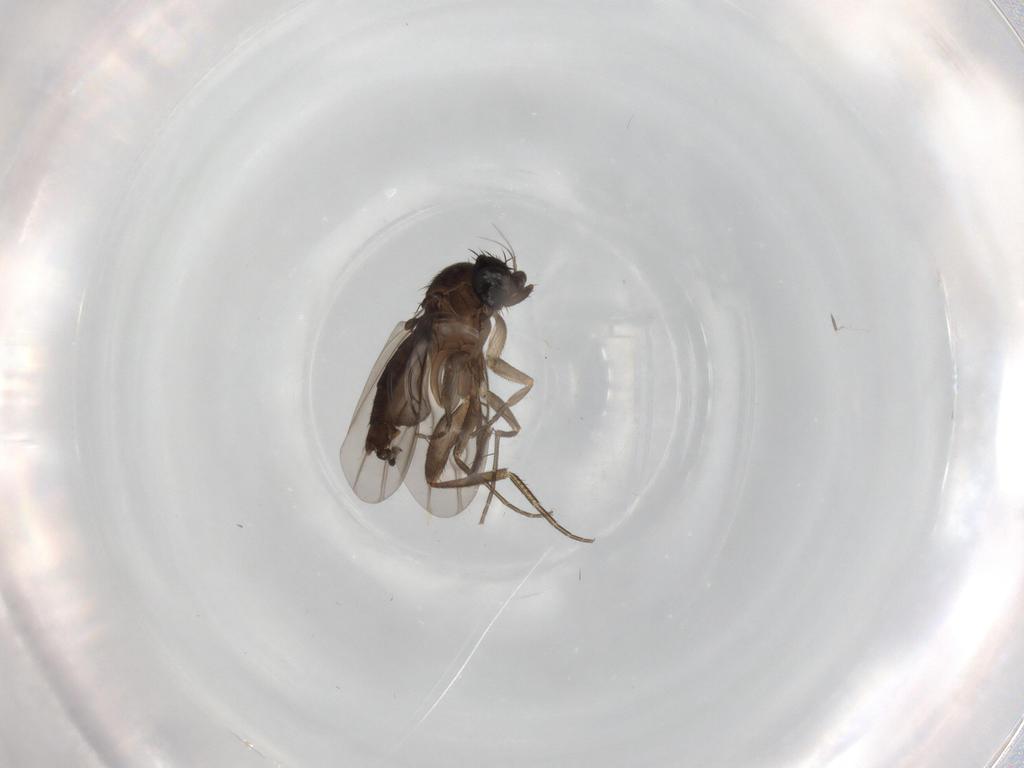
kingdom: Animalia
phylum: Arthropoda
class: Insecta
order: Diptera
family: Phoridae
